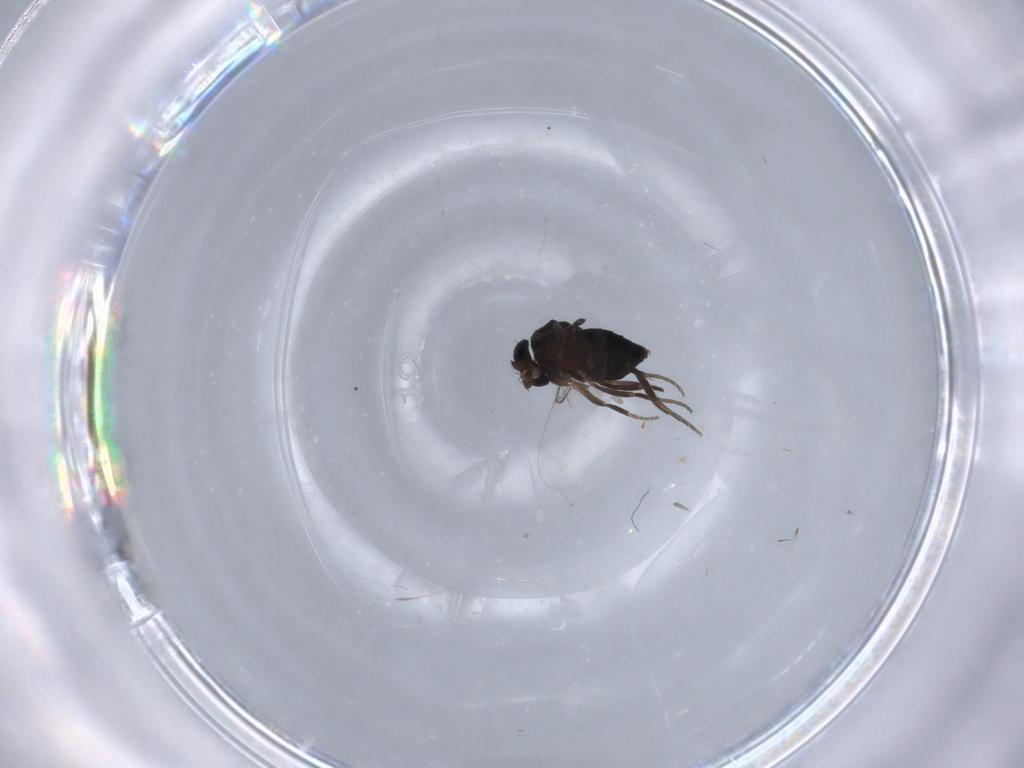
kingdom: Animalia
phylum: Arthropoda
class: Insecta
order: Diptera
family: Phoridae
